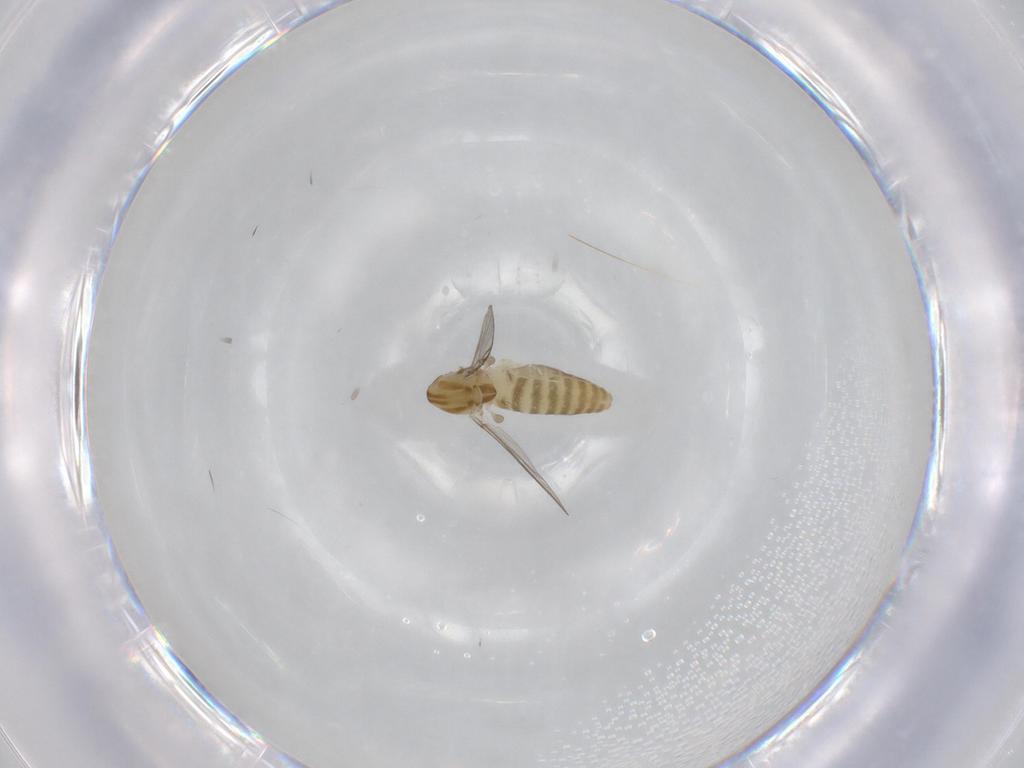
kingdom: Animalia
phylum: Arthropoda
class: Insecta
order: Diptera
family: Chironomidae
